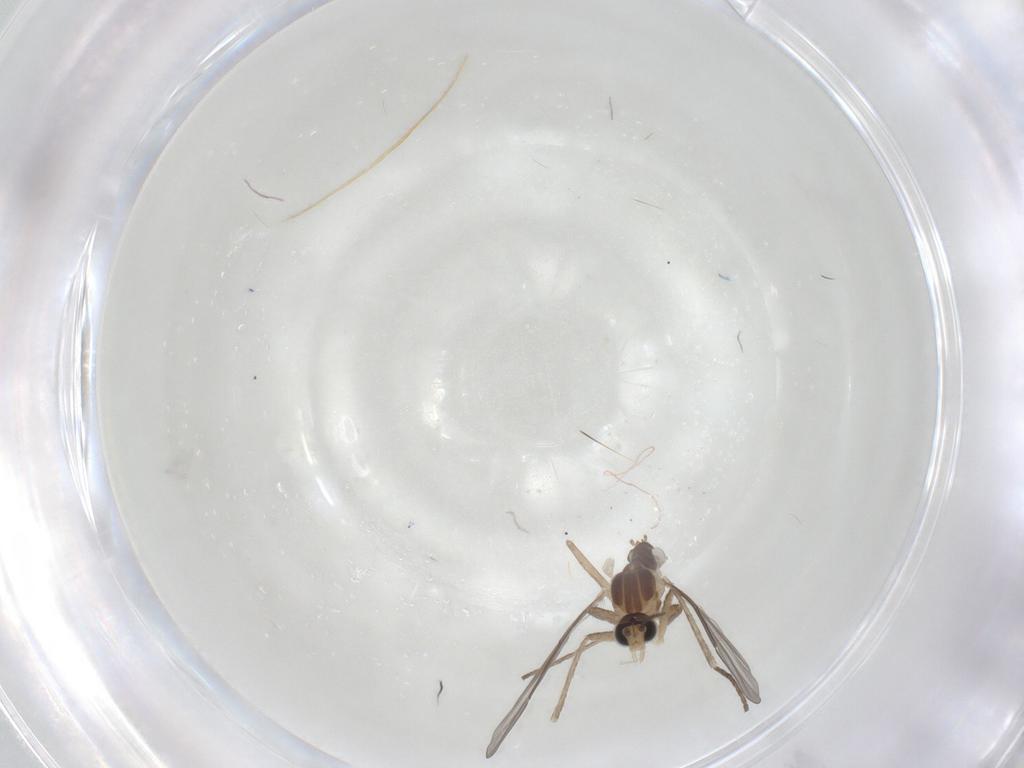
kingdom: Animalia
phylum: Arthropoda
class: Insecta
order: Diptera
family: Cecidomyiidae
